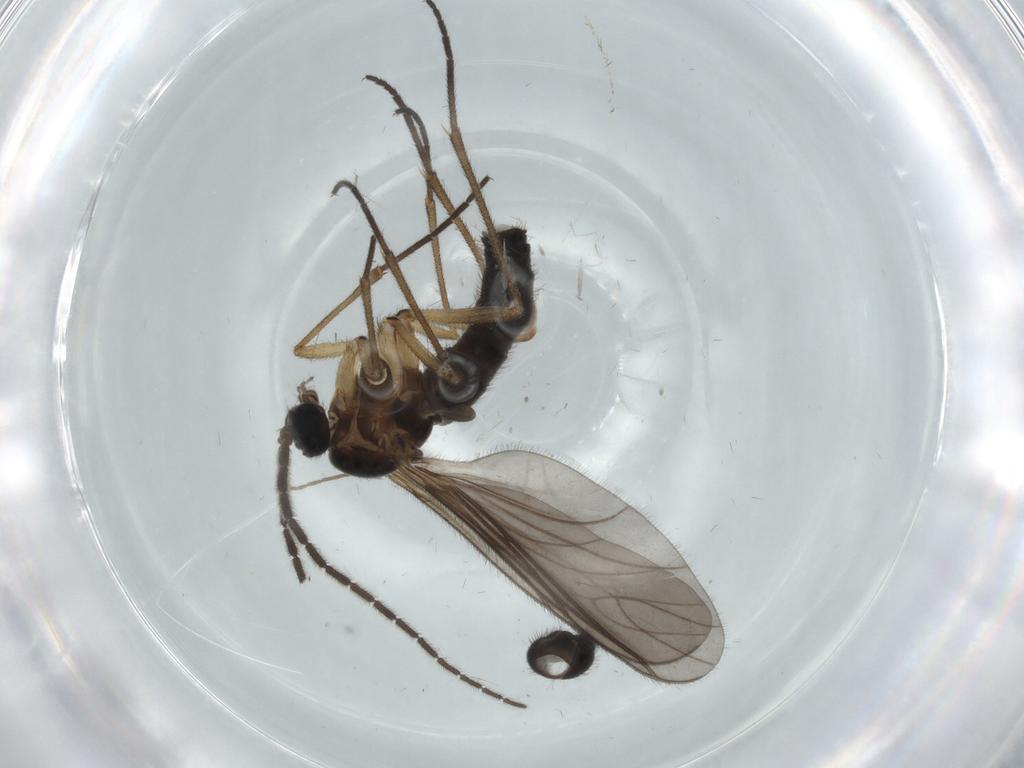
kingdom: Animalia
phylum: Arthropoda
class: Insecta
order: Diptera
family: Sciaridae
